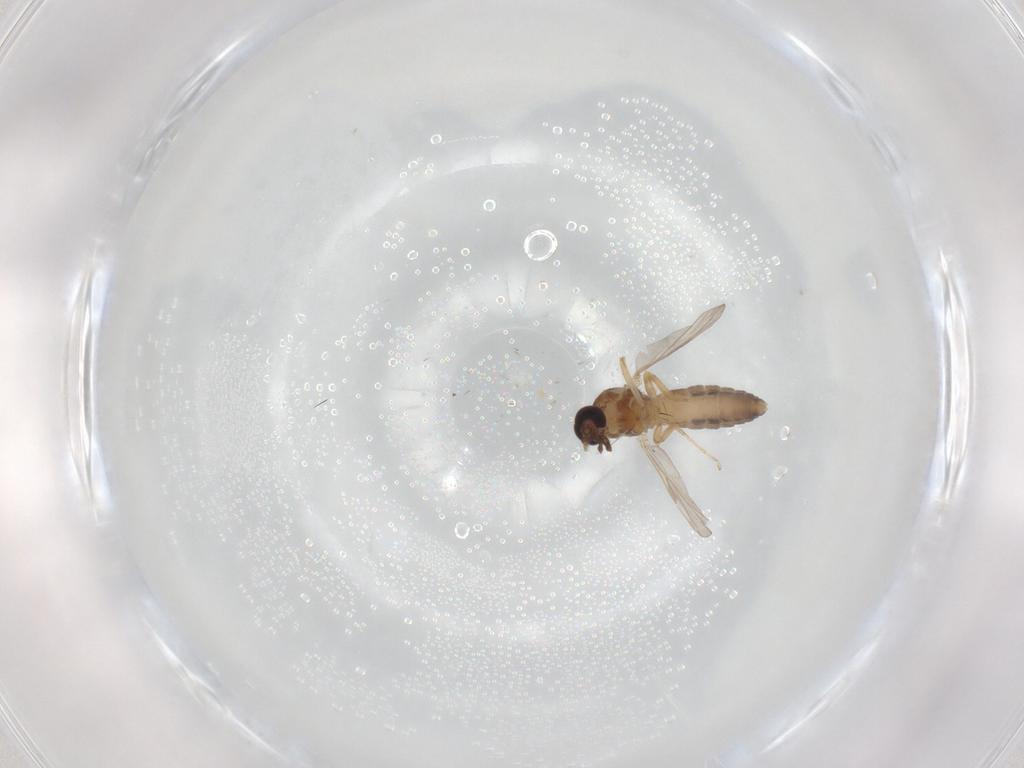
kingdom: Animalia
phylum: Arthropoda
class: Insecta
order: Diptera
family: Ceratopogonidae
